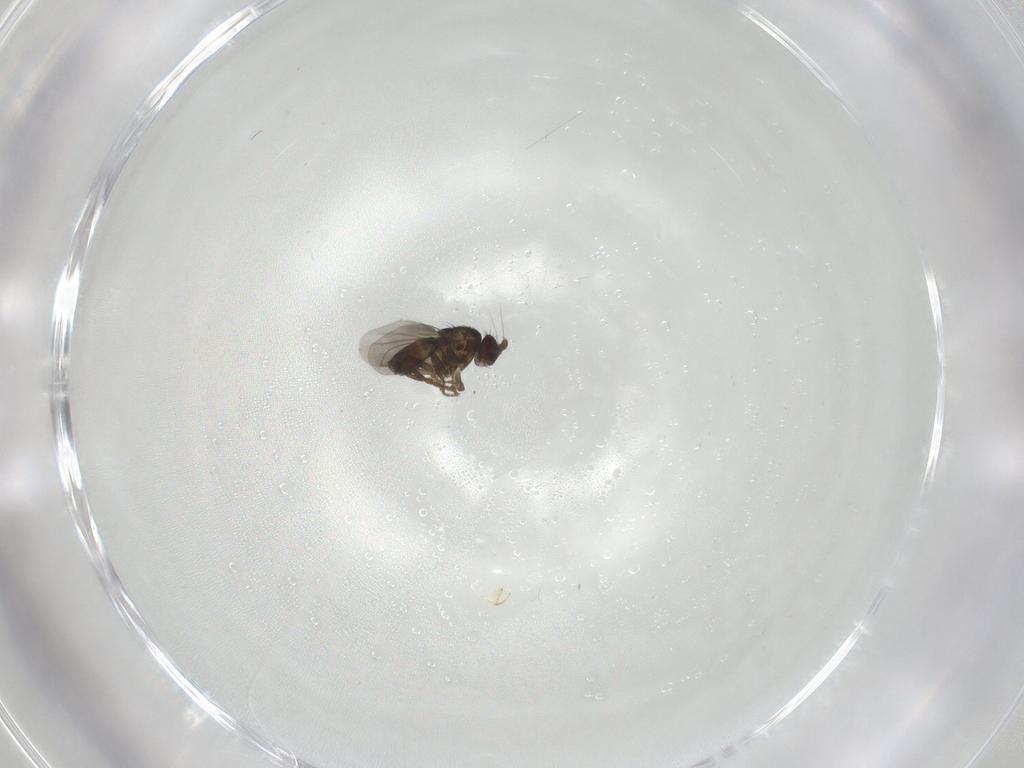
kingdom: Animalia
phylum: Arthropoda
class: Insecta
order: Diptera
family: Sphaeroceridae
